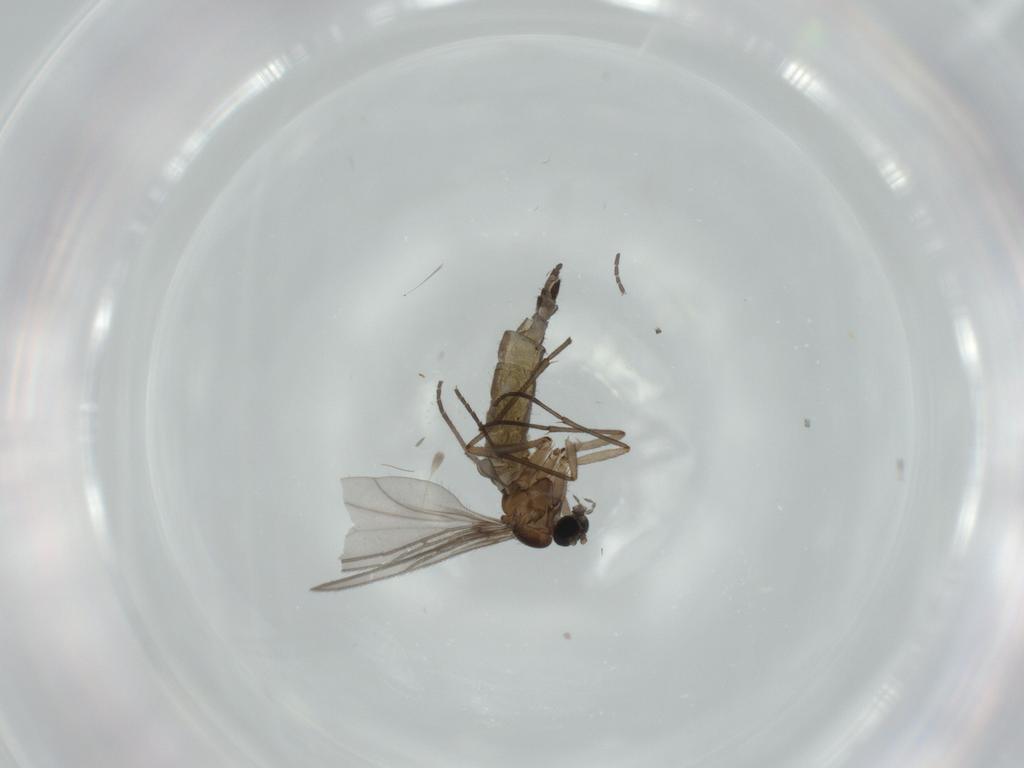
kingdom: Animalia
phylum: Arthropoda
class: Insecta
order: Diptera
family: Sciaridae
